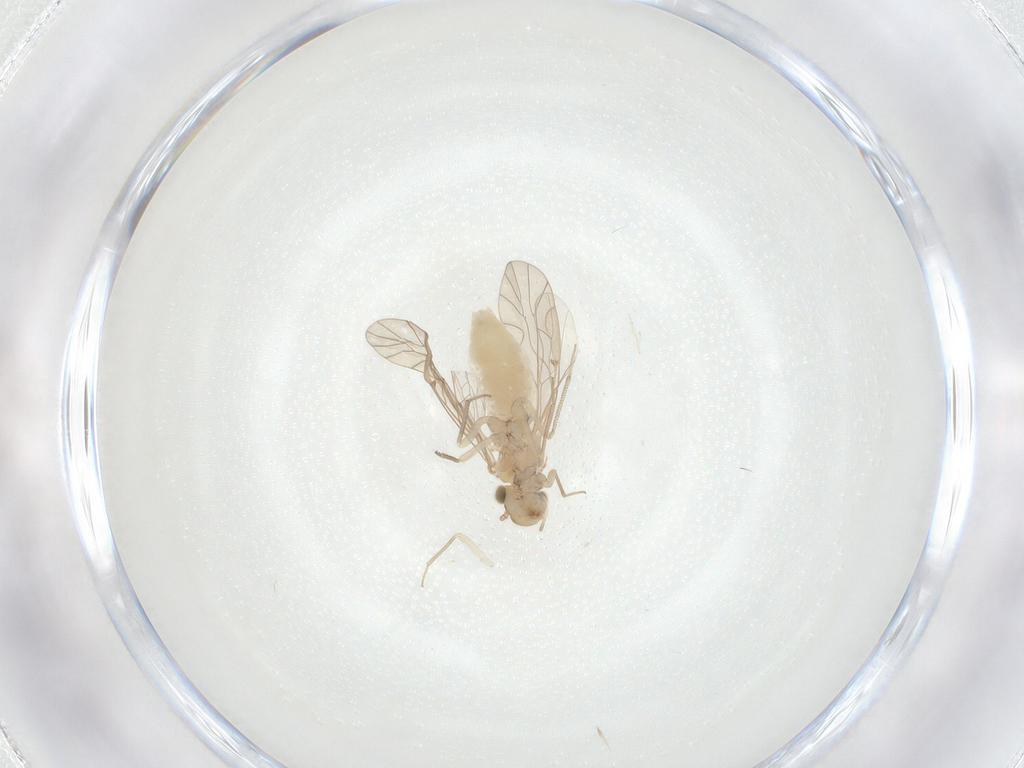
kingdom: Animalia
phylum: Arthropoda
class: Insecta
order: Psocodea
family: Lachesillidae
